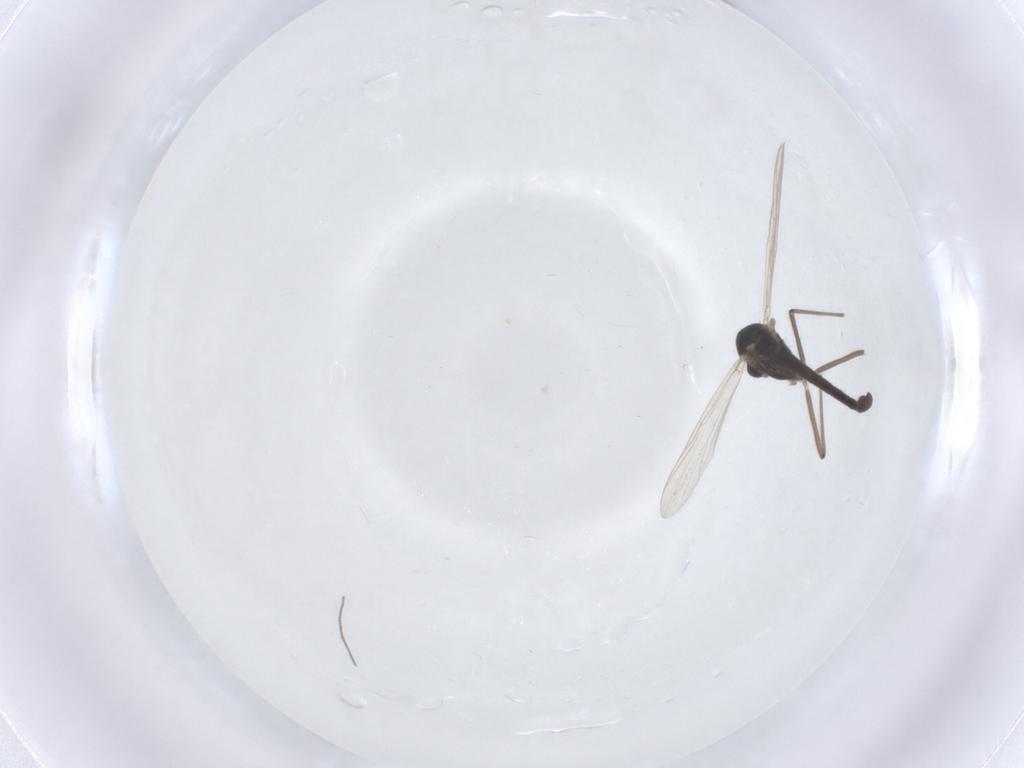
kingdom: Animalia
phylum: Arthropoda
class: Insecta
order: Diptera
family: Chironomidae
